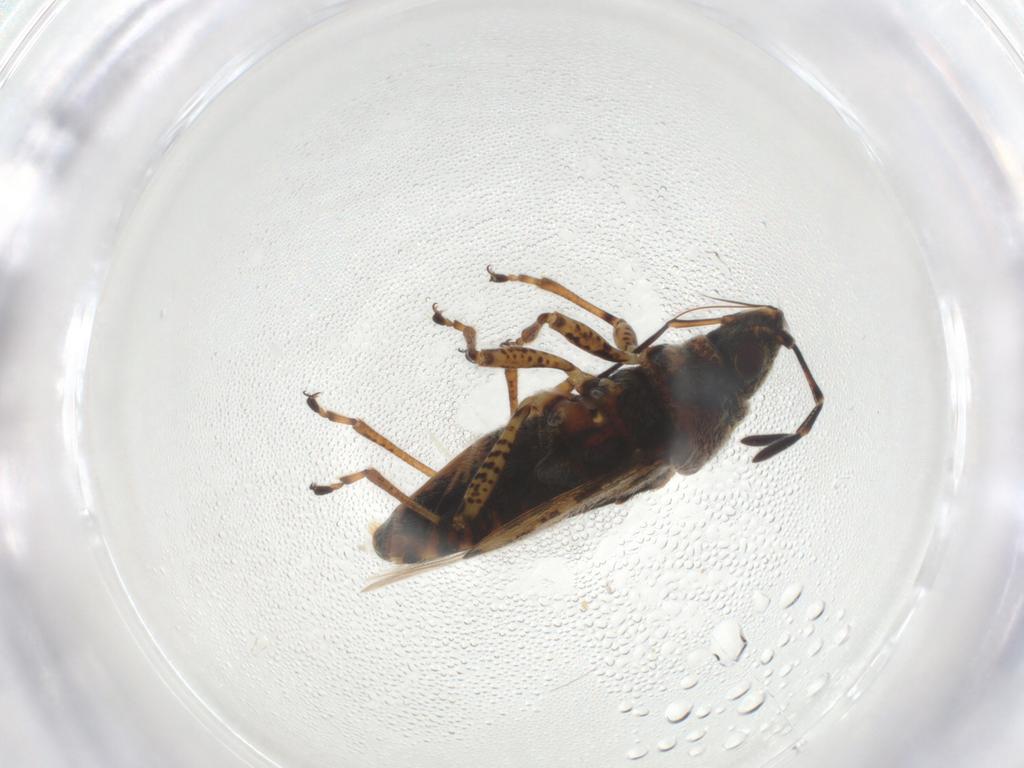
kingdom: Animalia
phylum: Arthropoda
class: Insecta
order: Hemiptera
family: Lygaeidae
